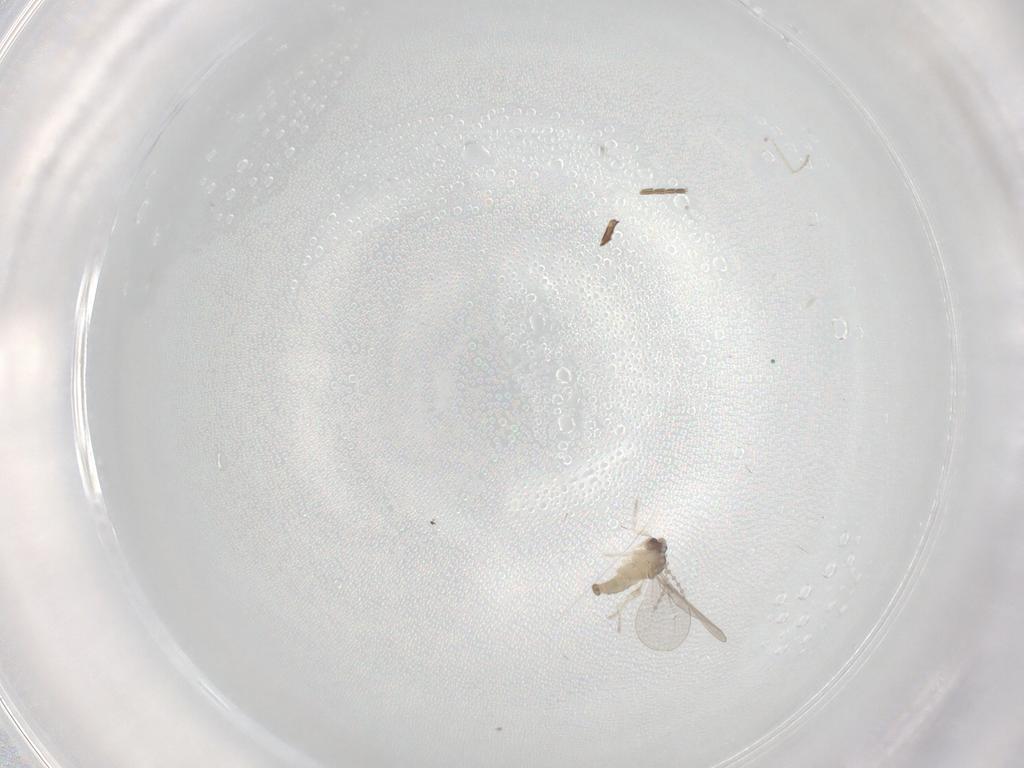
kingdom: Animalia
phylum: Arthropoda
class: Insecta
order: Diptera
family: Cecidomyiidae
